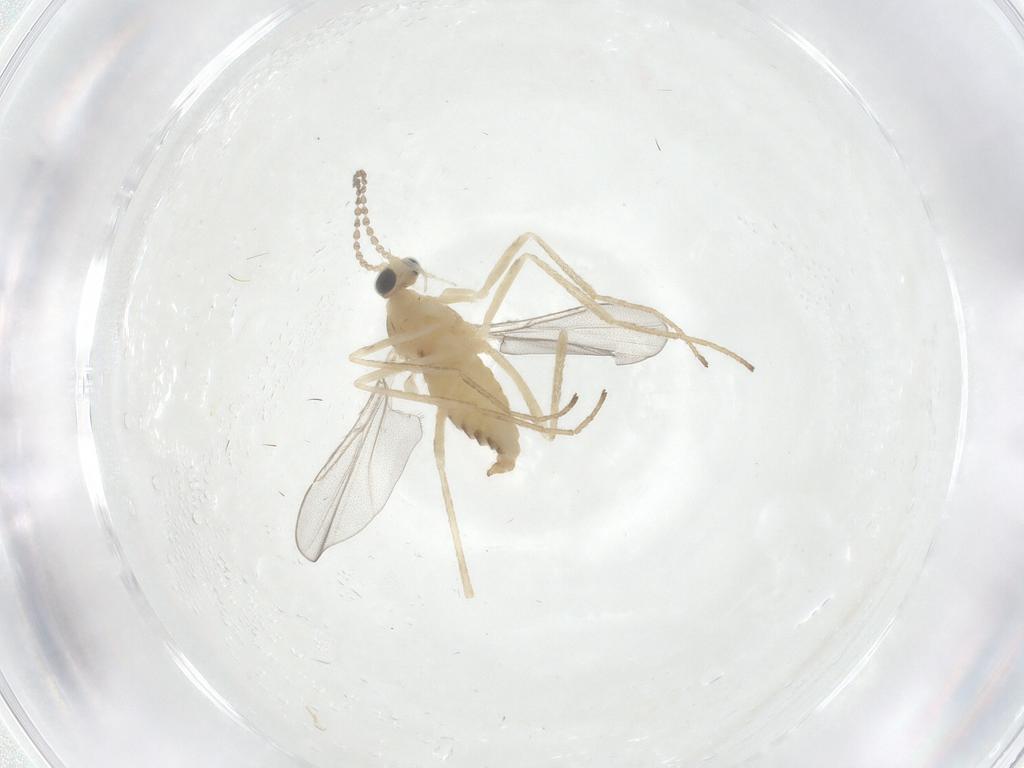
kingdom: Animalia
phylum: Arthropoda
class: Insecta
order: Diptera
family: Cecidomyiidae
